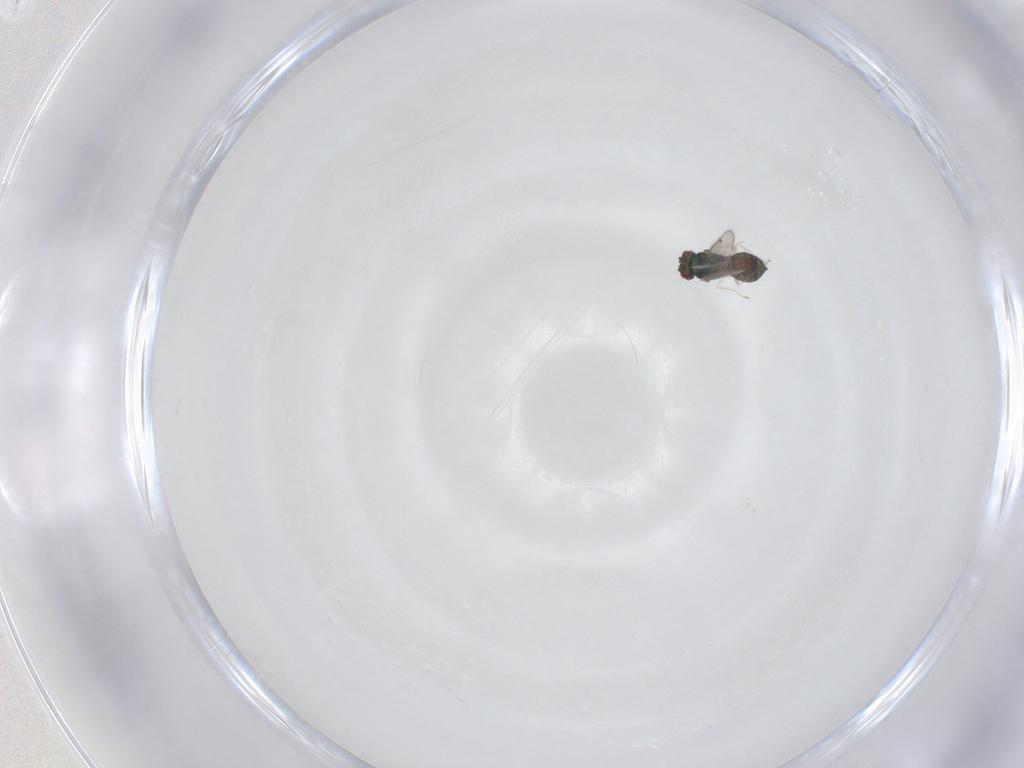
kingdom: Animalia
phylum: Arthropoda
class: Insecta
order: Hymenoptera
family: Eulophidae
